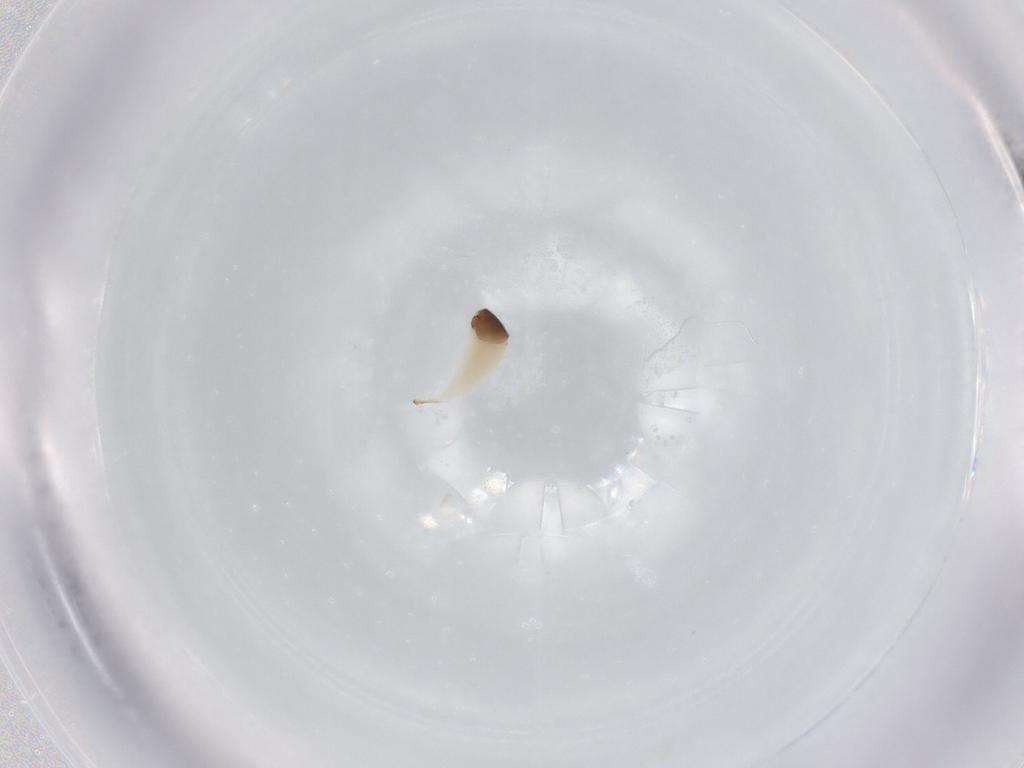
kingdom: Animalia
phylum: Arthropoda
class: Insecta
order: Hymenoptera
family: Ichneumonidae
